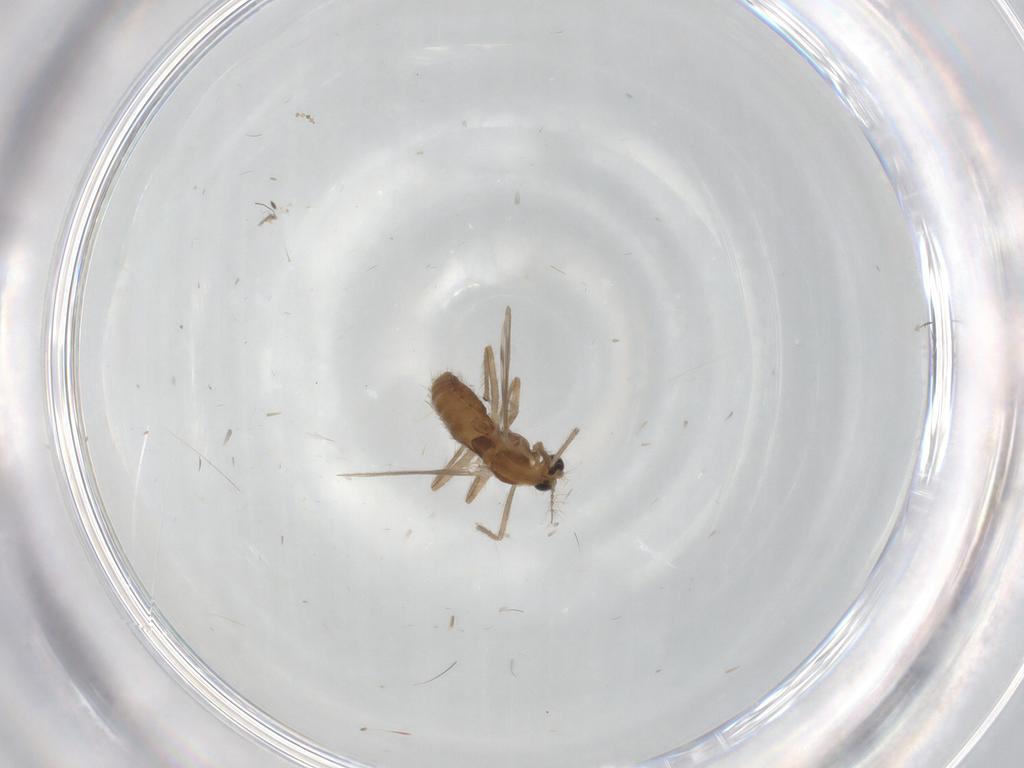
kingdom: Animalia
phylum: Arthropoda
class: Insecta
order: Diptera
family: Chironomidae
